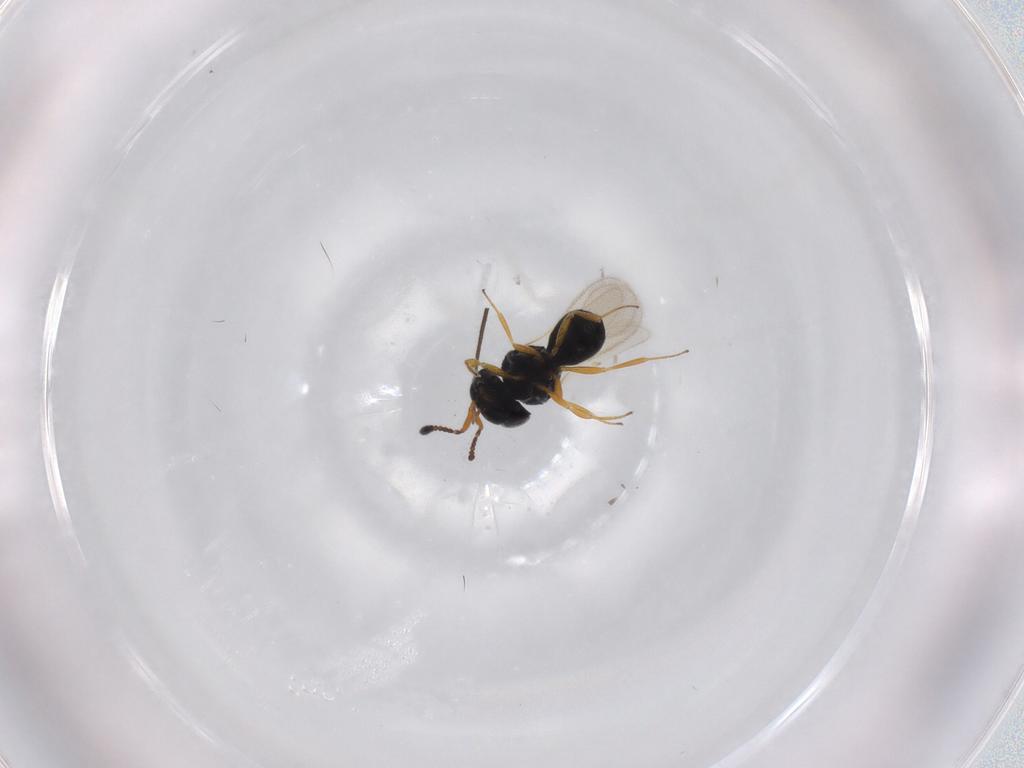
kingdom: Animalia
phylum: Arthropoda
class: Insecta
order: Hymenoptera
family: Scelionidae
